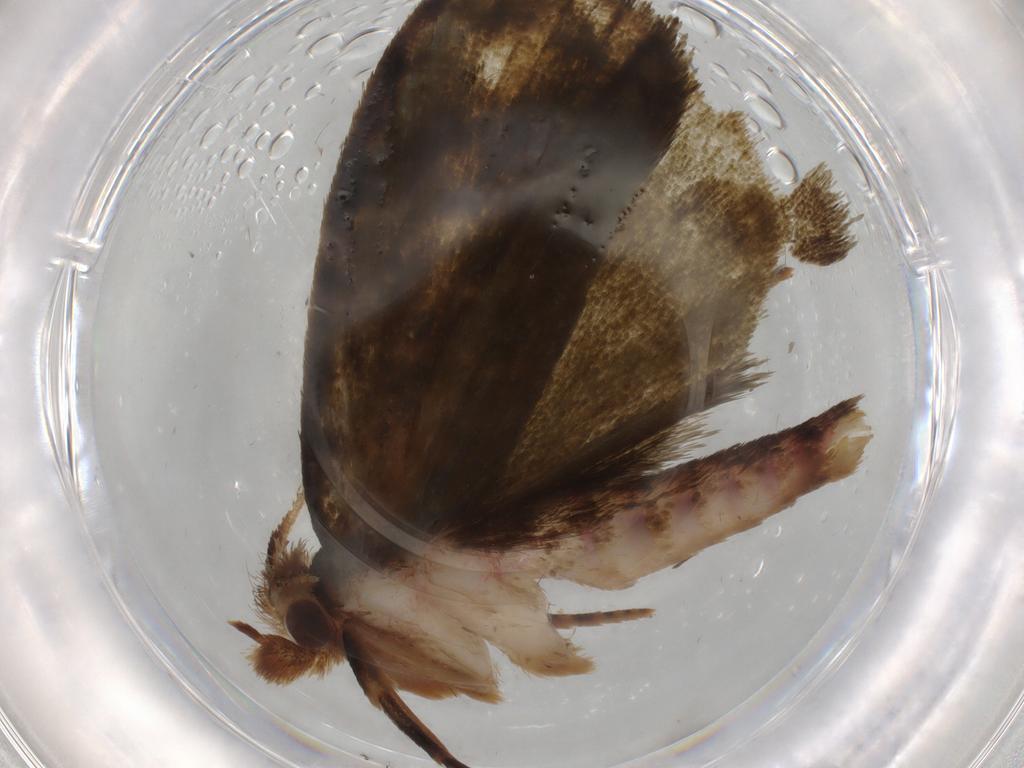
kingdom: Animalia
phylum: Arthropoda
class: Insecta
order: Lepidoptera
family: Geometridae
